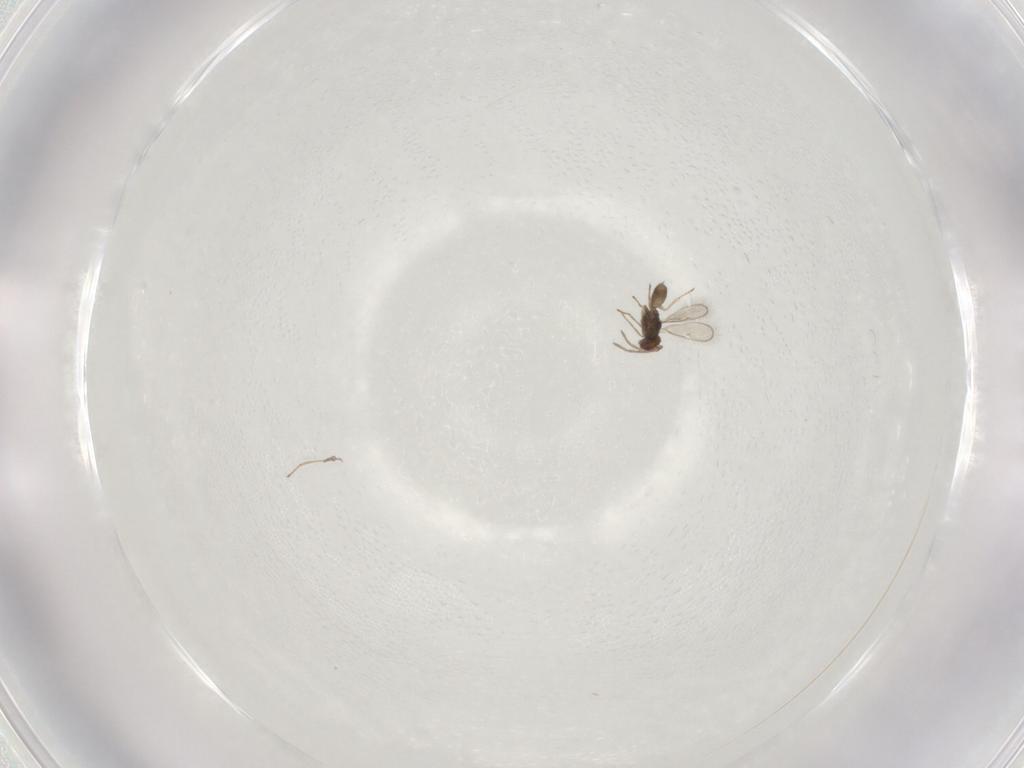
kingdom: Animalia
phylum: Arthropoda
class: Insecta
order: Hymenoptera
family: Eulophidae
